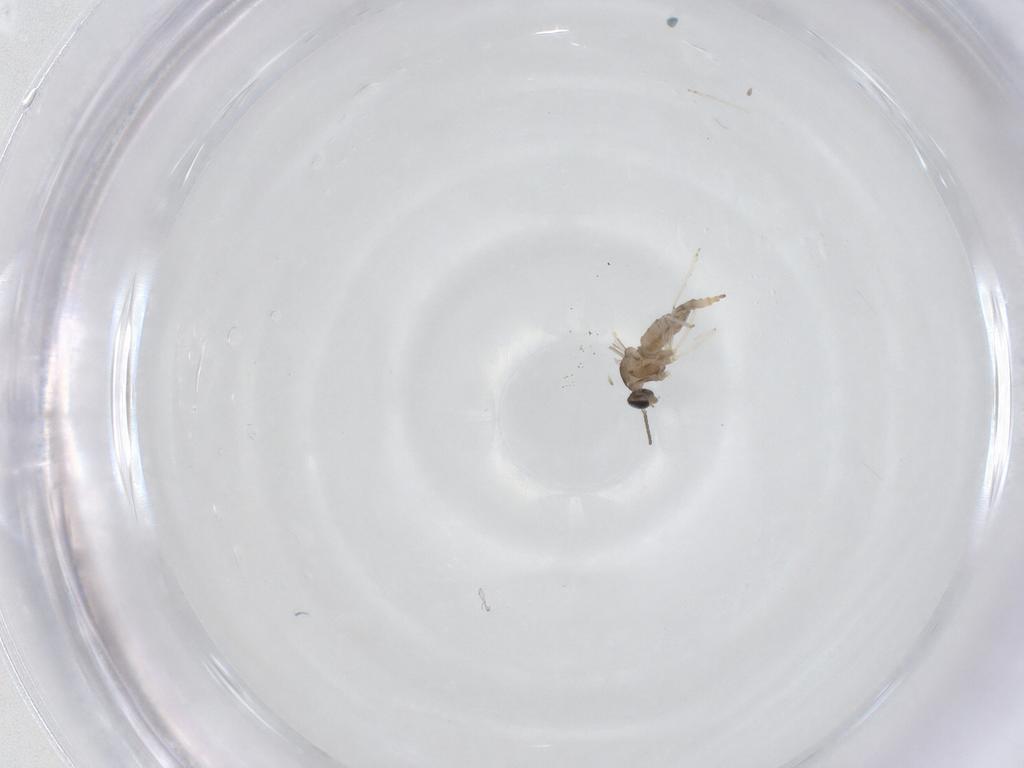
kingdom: Animalia
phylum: Arthropoda
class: Insecta
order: Diptera
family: Cecidomyiidae
